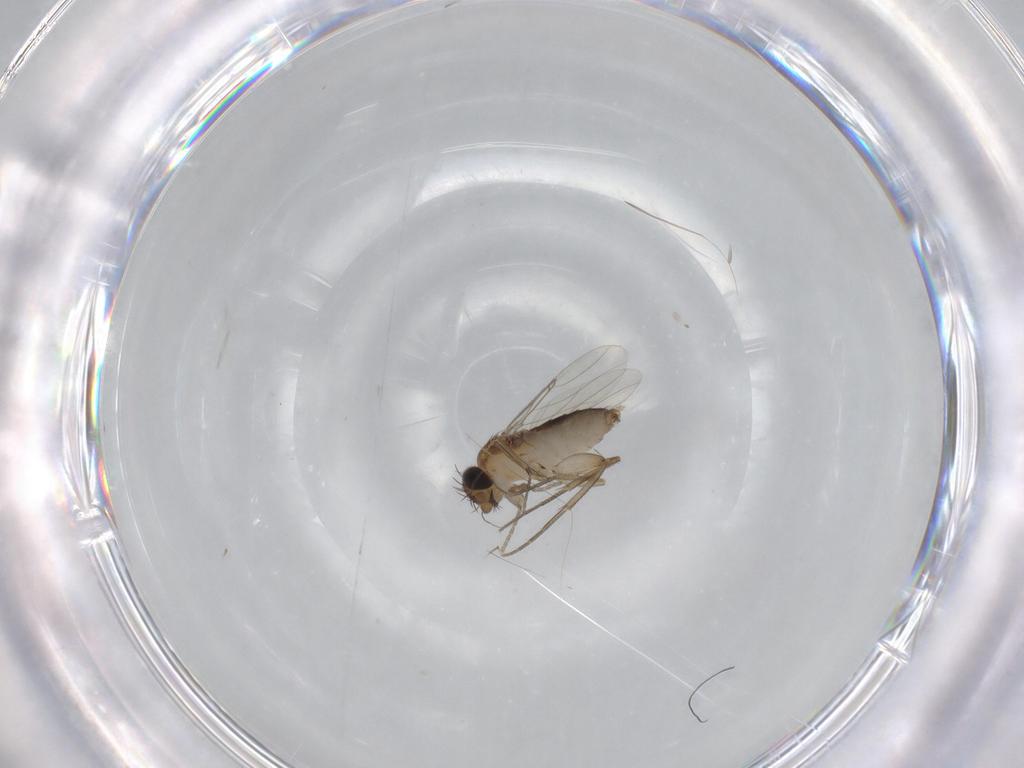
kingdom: Animalia
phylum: Arthropoda
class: Insecta
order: Diptera
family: Phoridae
